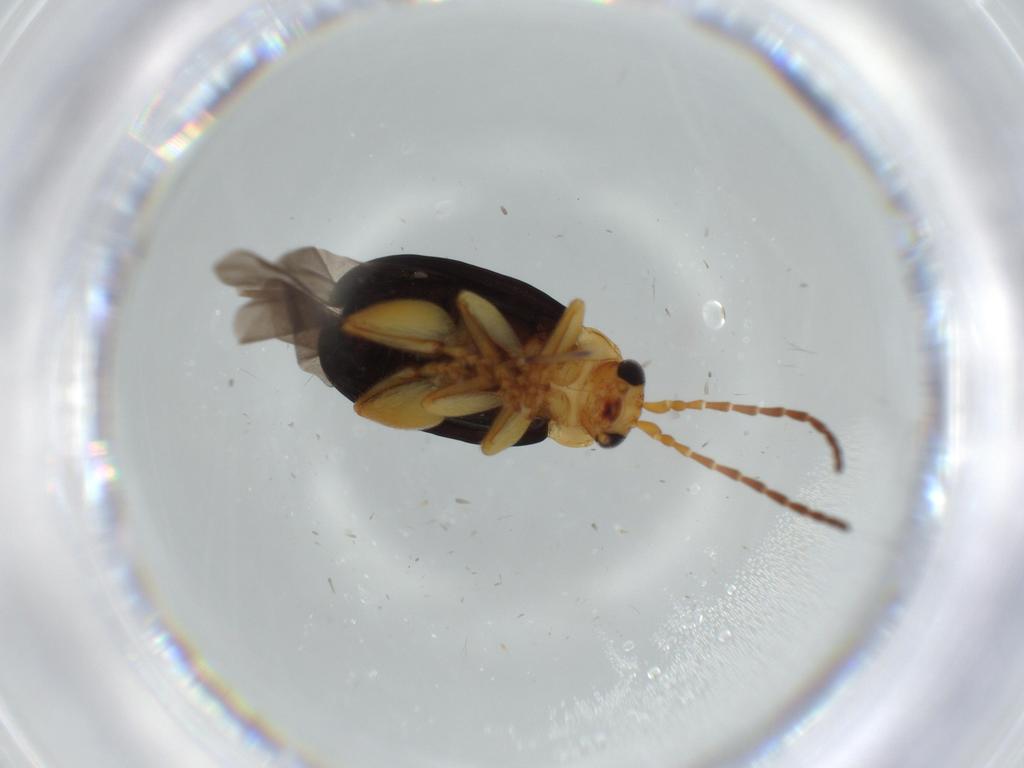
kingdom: Animalia
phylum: Arthropoda
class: Insecta
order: Coleoptera
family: Chrysomelidae
